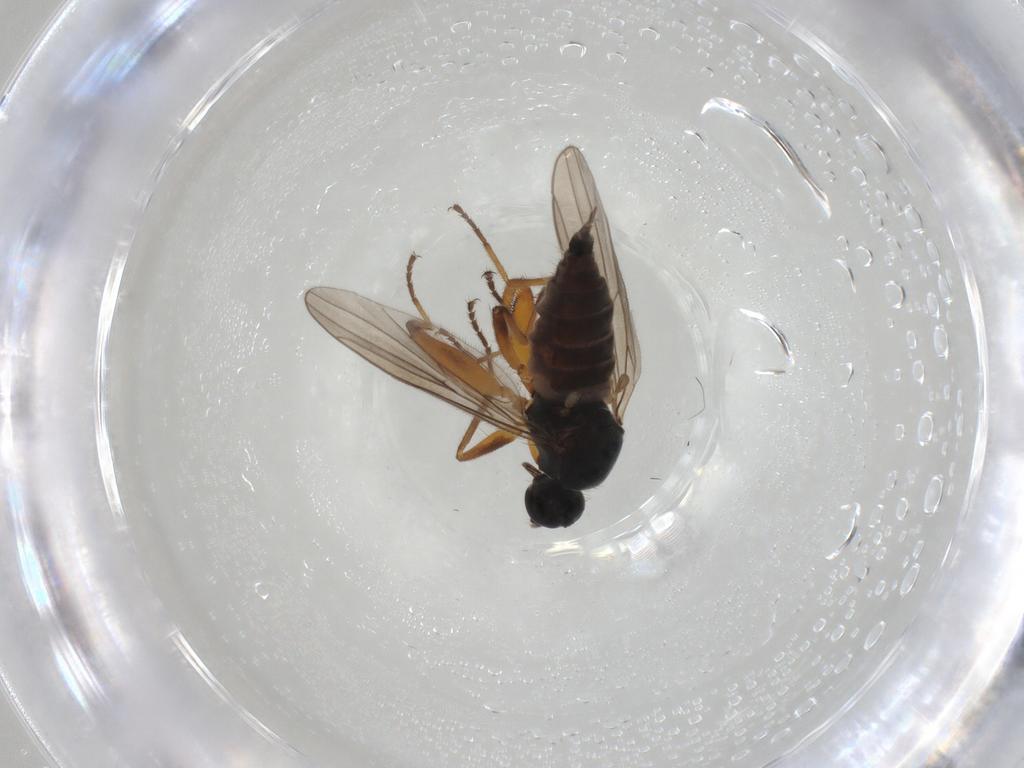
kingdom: Animalia
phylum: Arthropoda
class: Insecta
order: Diptera
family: Hybotidae
